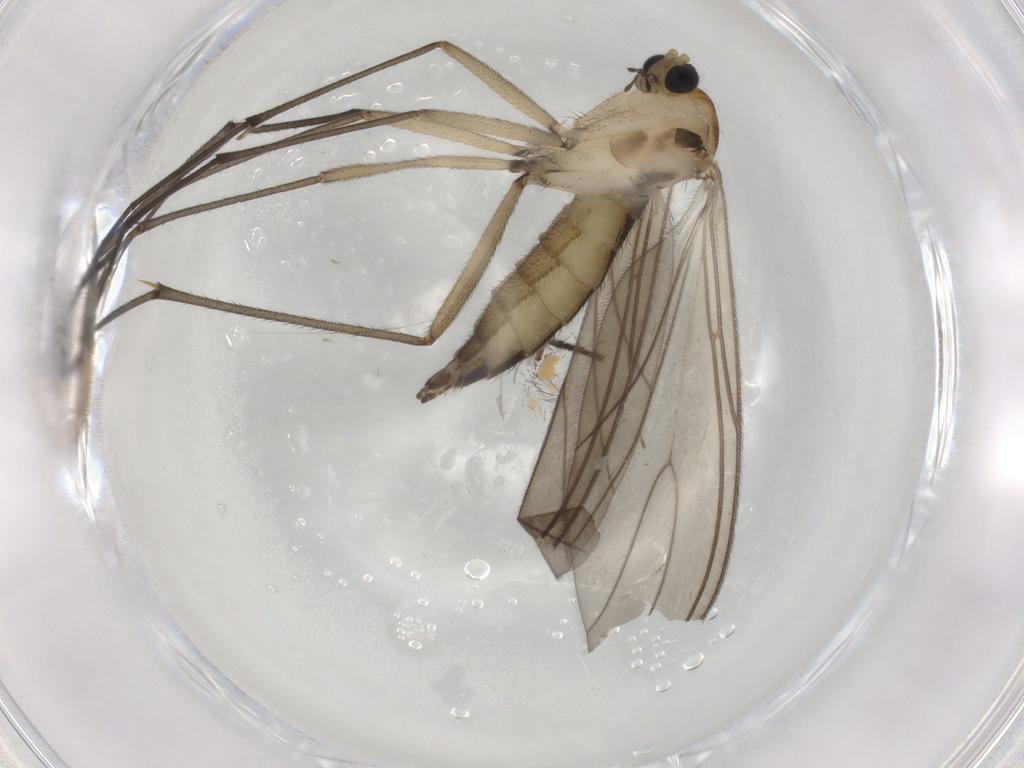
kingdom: Animalia
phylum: Arthropoda
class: Insecta
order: Diptera
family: Sciaridae
